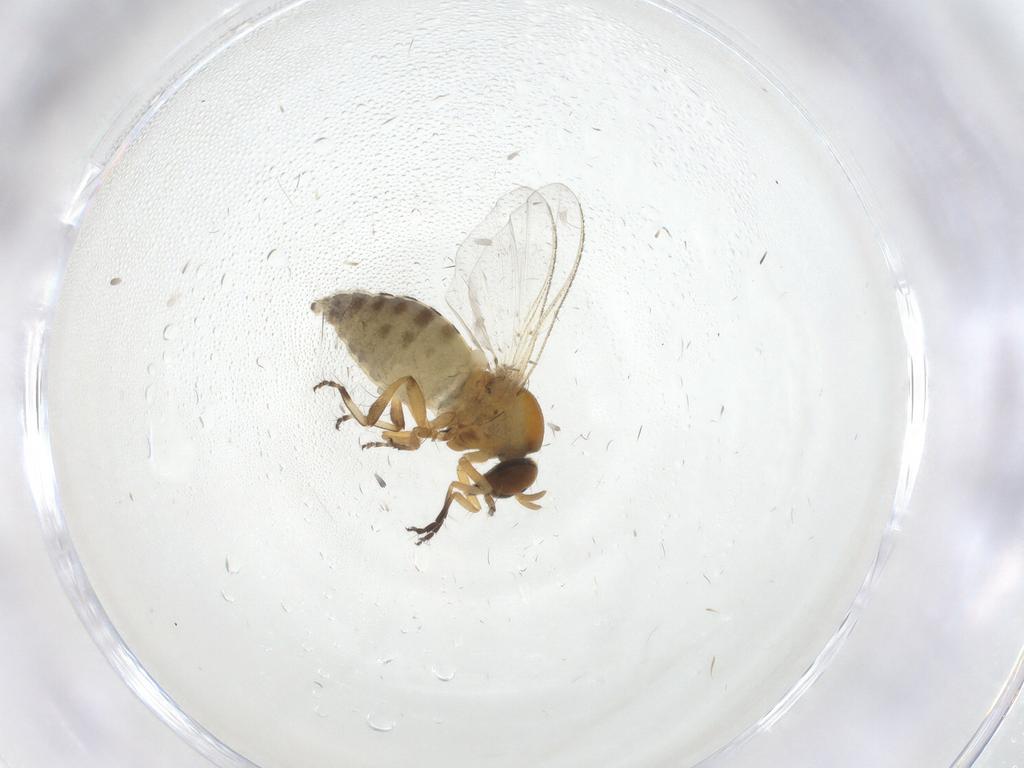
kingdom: Animalia
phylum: Arthropoda
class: Insecta
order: Diptera
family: Simuliidae
